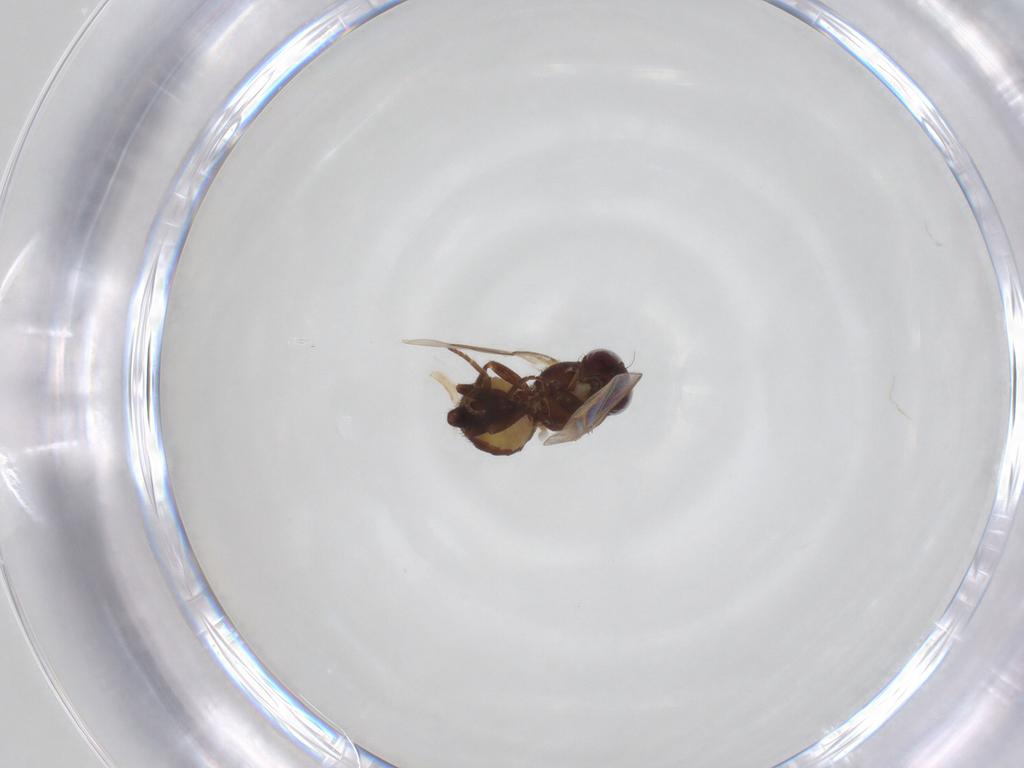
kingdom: Animalia
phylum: Arthropoda
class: Insecta
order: Diptera
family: Agromyzidae
